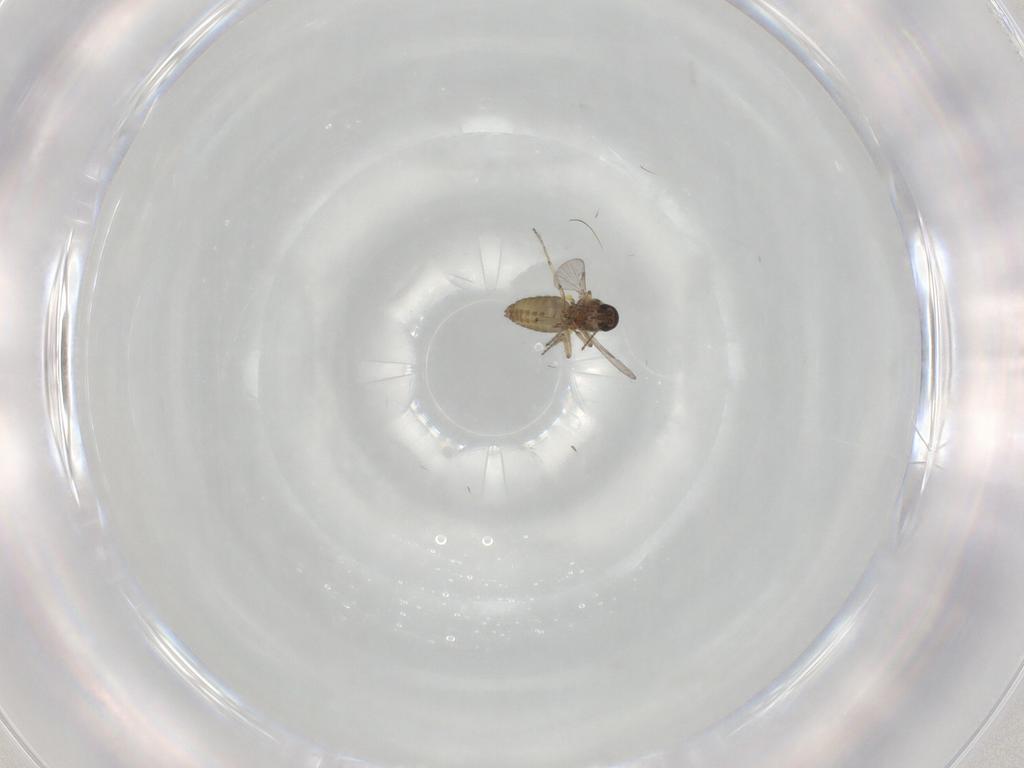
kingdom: Animalia
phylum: Arthropoda
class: Insecta
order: Diptera
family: Ceratopogonidae
